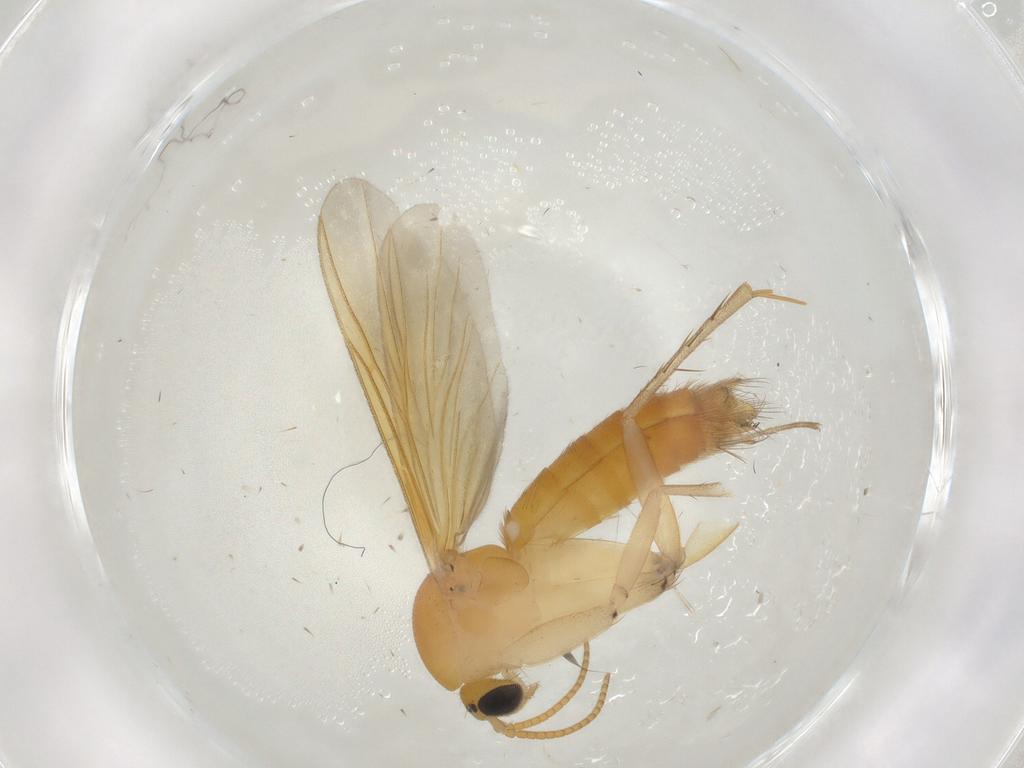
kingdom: Animalia
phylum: Arthropoda
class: Insecta
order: Diptera
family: Mycetophilidae
